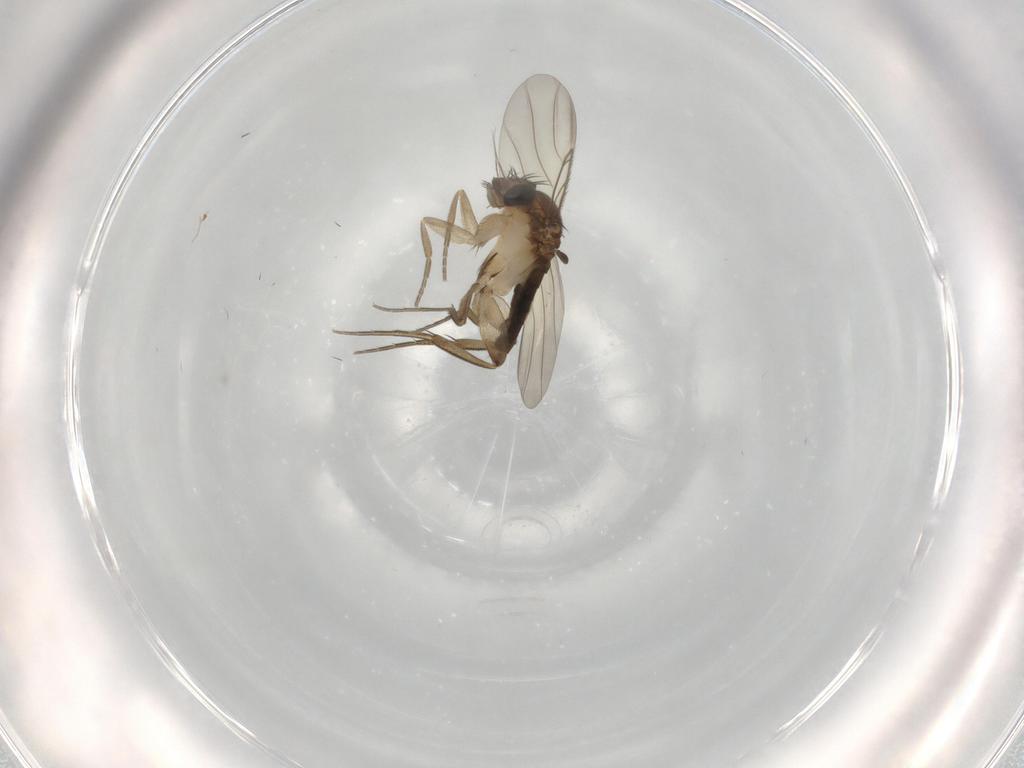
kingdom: Animalia
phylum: Arthropoda
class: Insecta
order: Diptera
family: Phoridae
